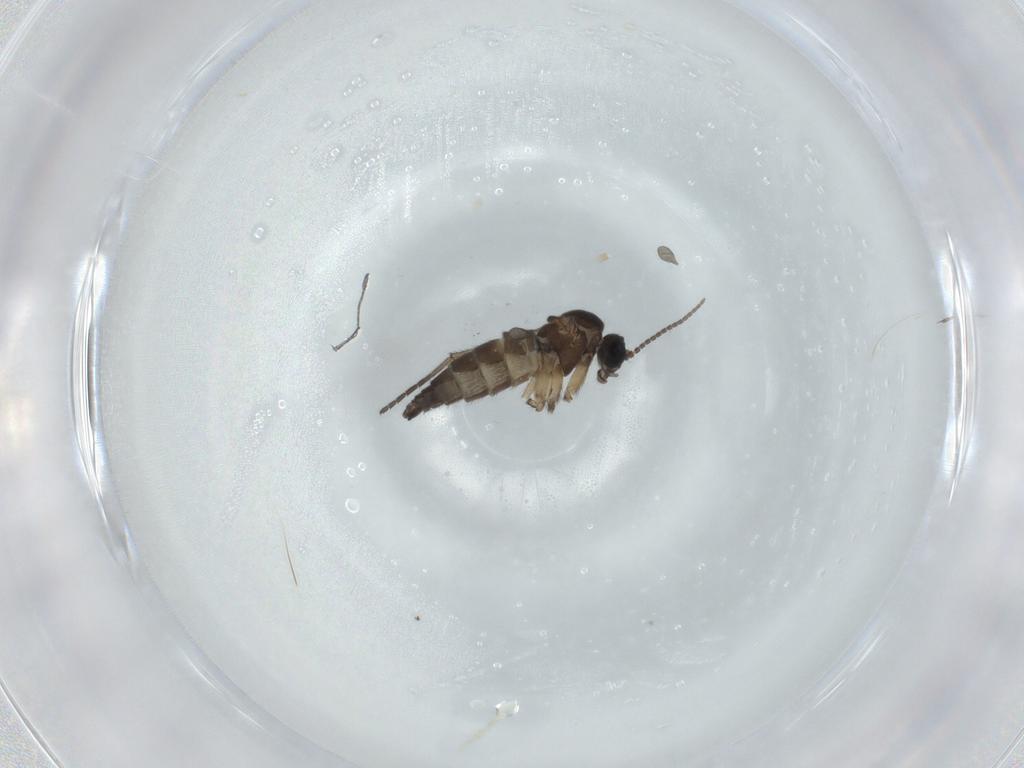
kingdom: Animalia
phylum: Arthropoda
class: Insecta
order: Diptera
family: Sciaridae
